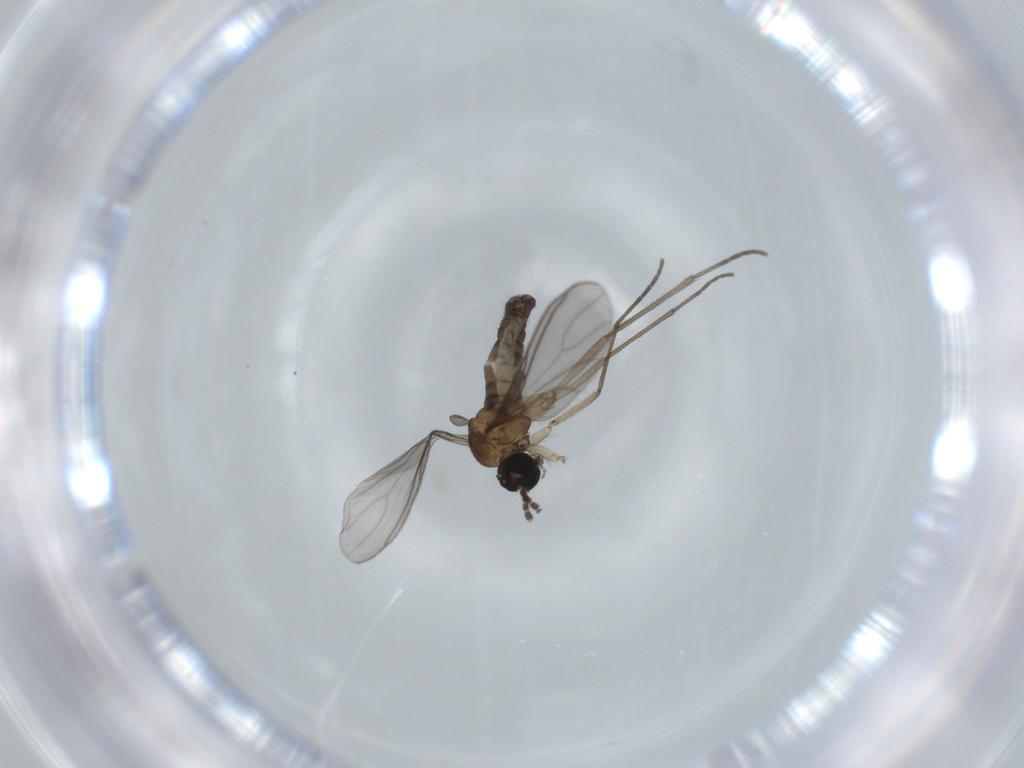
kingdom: Animalia
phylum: Arthropoda
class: Insecta
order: Diptera
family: Sciaridae
